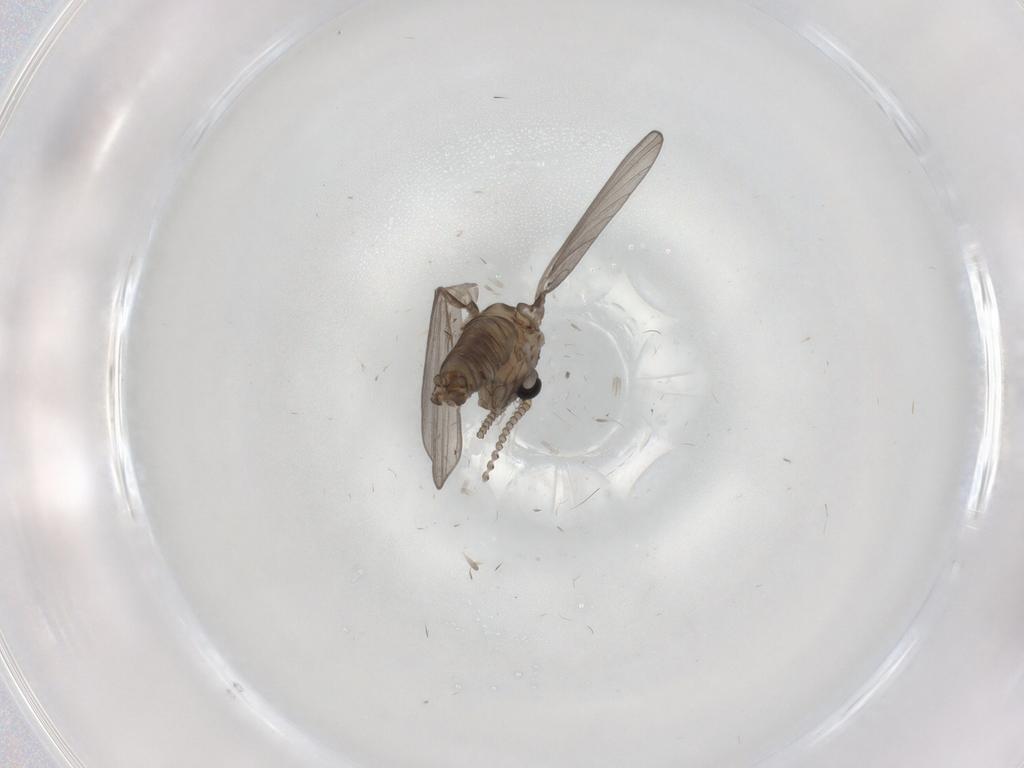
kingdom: Animalia
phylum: Arthropoda
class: Insecta
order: Diptera
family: Psychodidae
